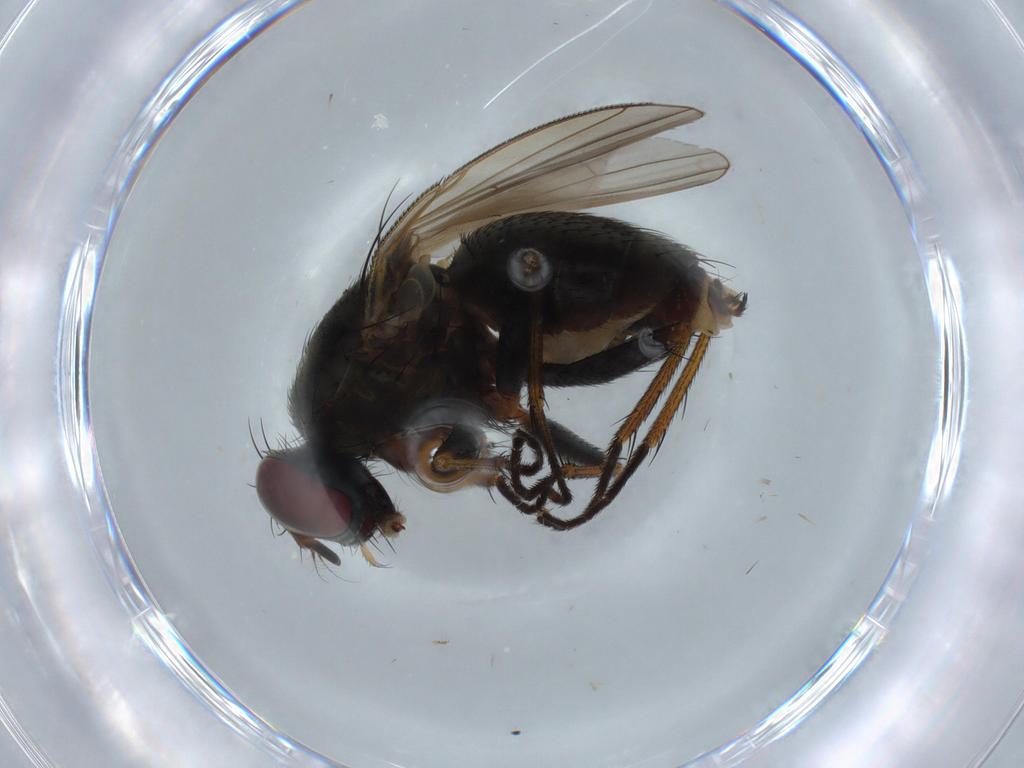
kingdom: Animalia
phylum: Arthropoda
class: Insecta
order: Diptera
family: Muscidae
